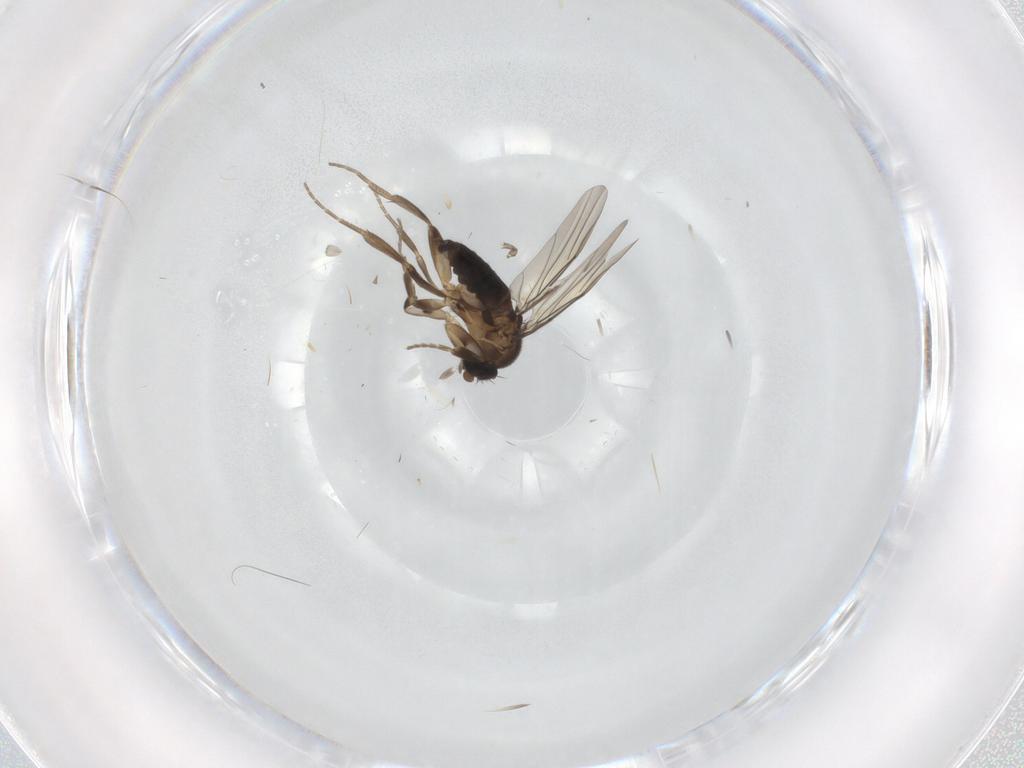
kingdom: Animalia
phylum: Arthropoda
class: Insecta
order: Diptera
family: Phoridae
